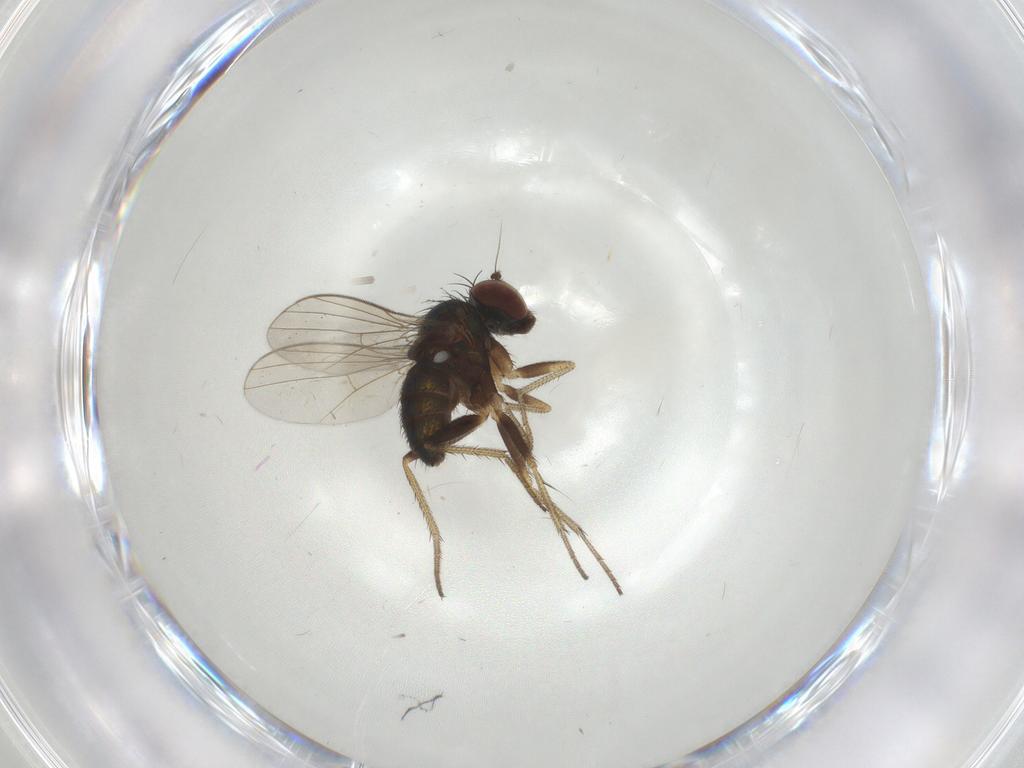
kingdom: Animalia
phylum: Arthropoda
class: Insecta
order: Diptera
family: Dolichopodidae
